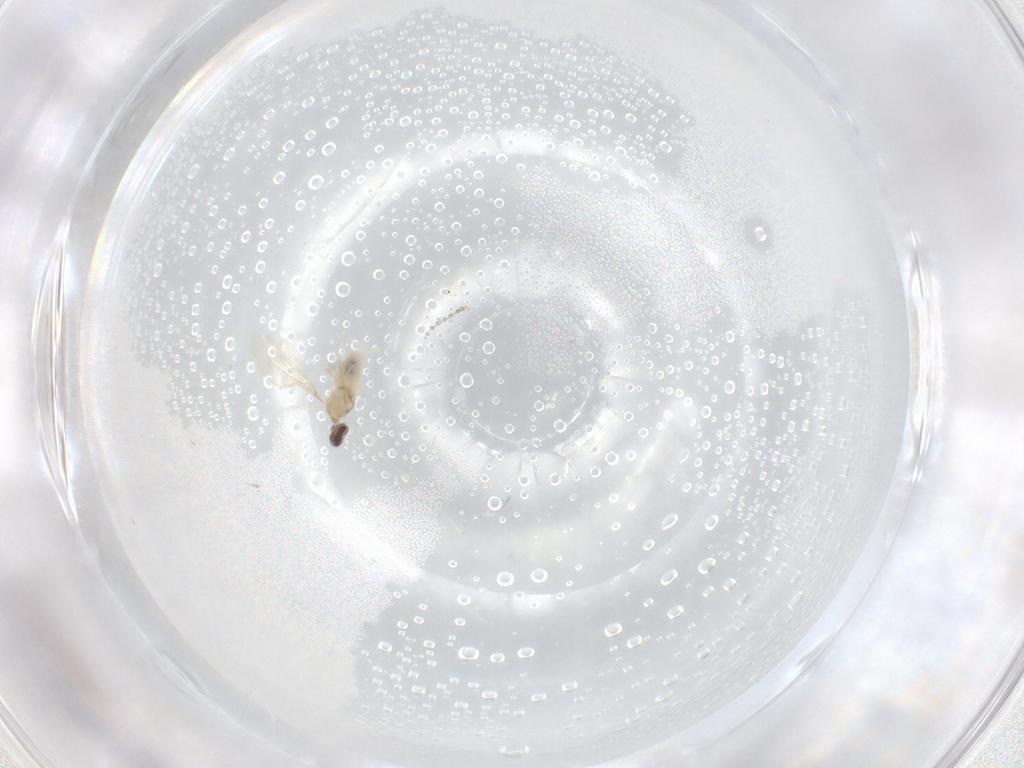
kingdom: Animalia
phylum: Arthropoda
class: Insecta
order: Diptera
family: Cecidomyiidae
